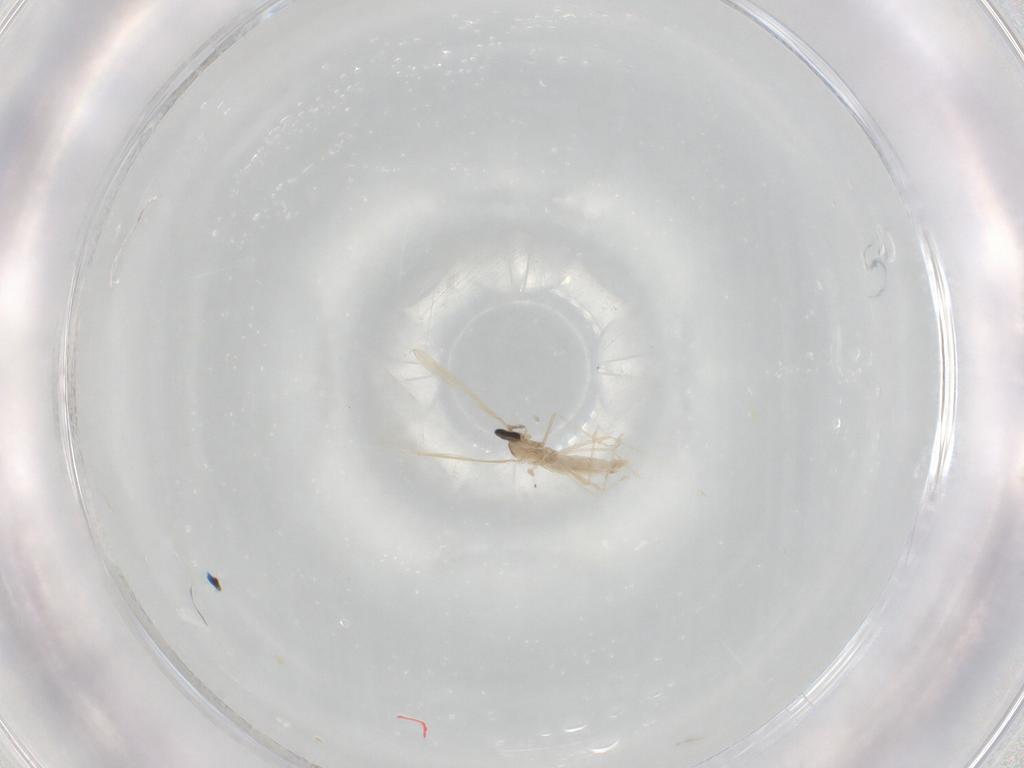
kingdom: Animalia
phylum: Arthropoda
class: Insecta
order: Diptera
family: Cecidomyiidae
